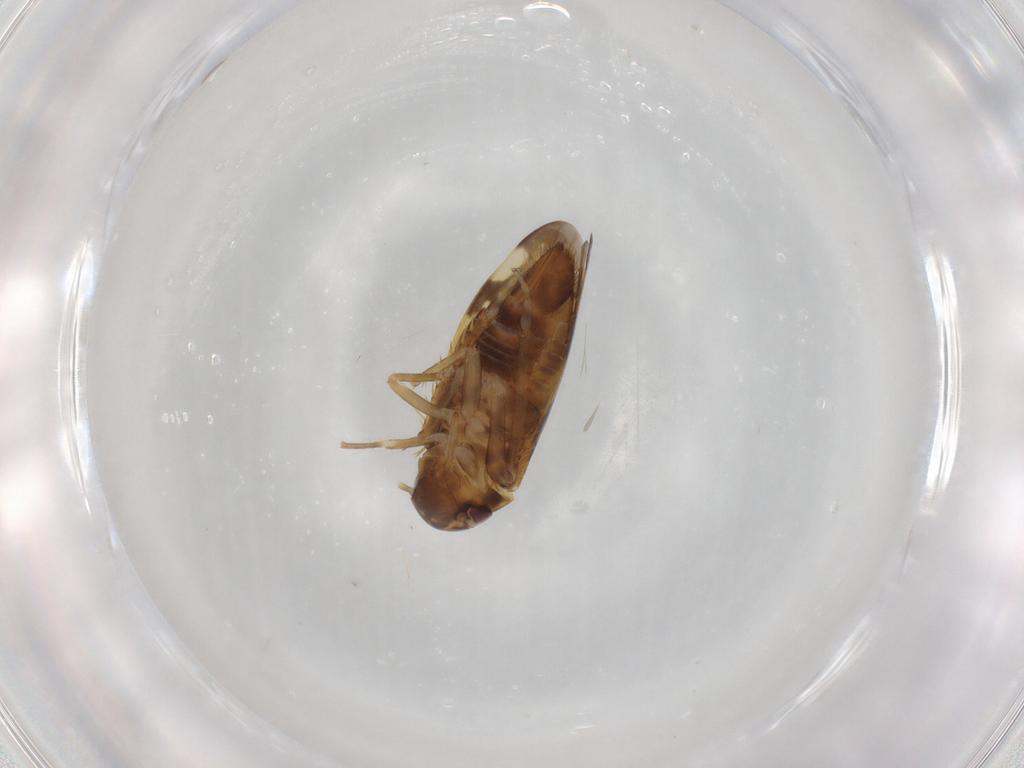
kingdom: Animalia
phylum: Arthropoda
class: Insecta
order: Hemiptera
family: Cicadellidae
